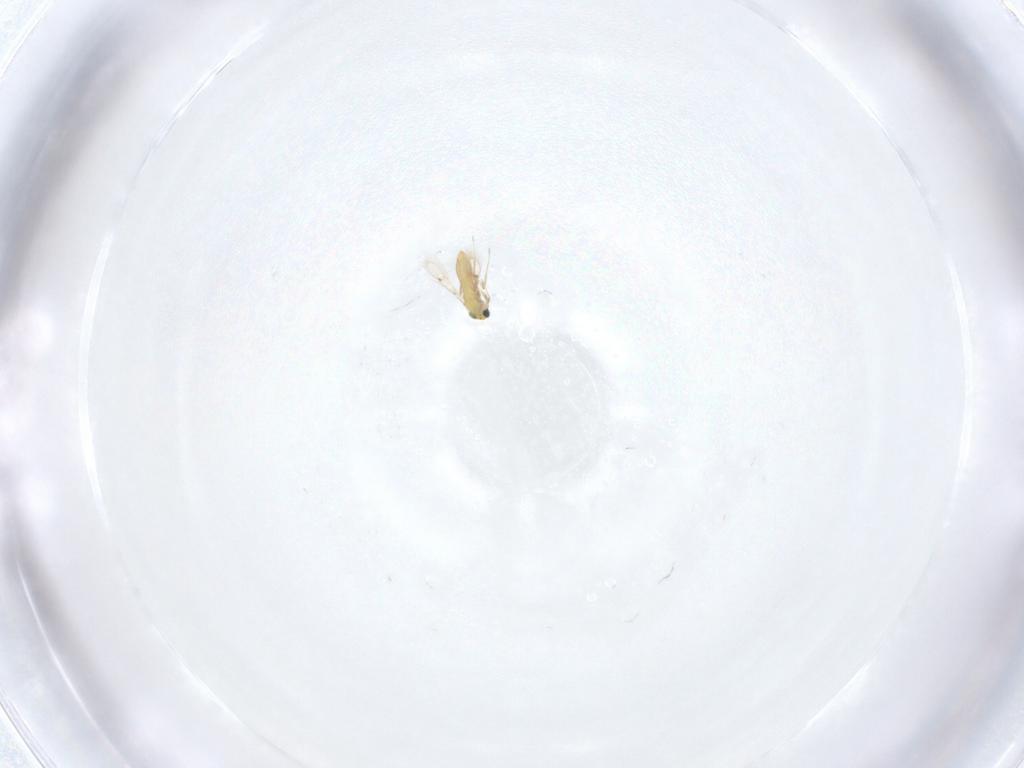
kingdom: Animalia
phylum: Arthropoda
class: Insecta
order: Hymenoptera
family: Trichogrammatidae
